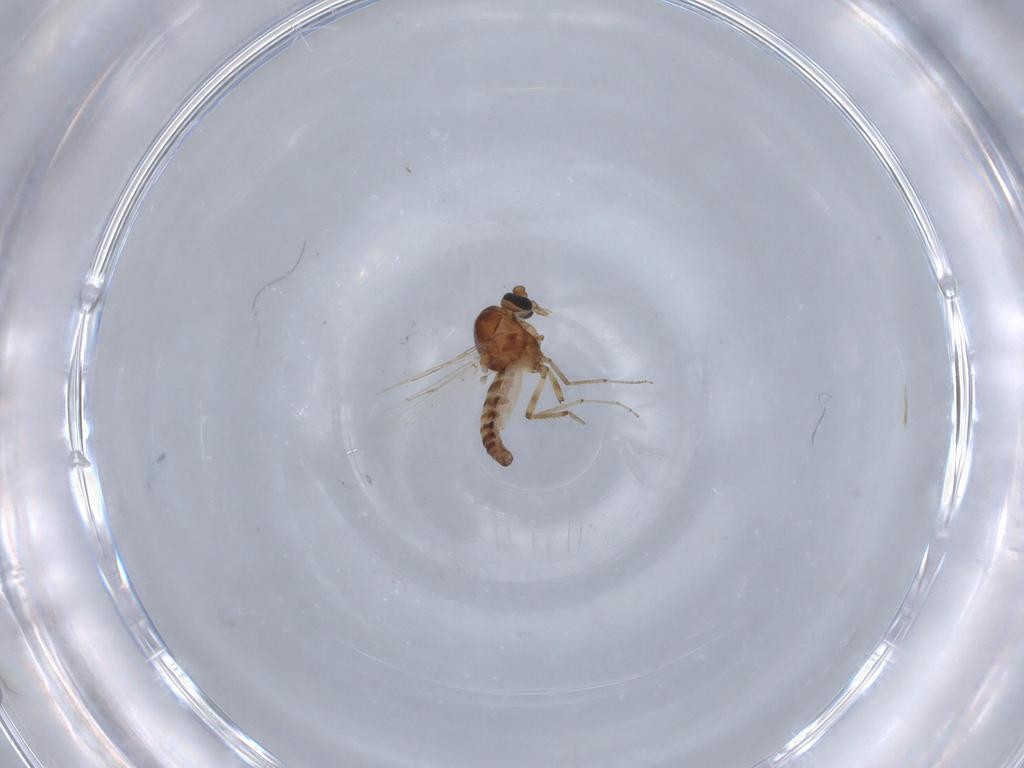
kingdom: Animalia
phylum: Arthropoda
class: Insecta
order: Diptera
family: Ceratopogonidae
